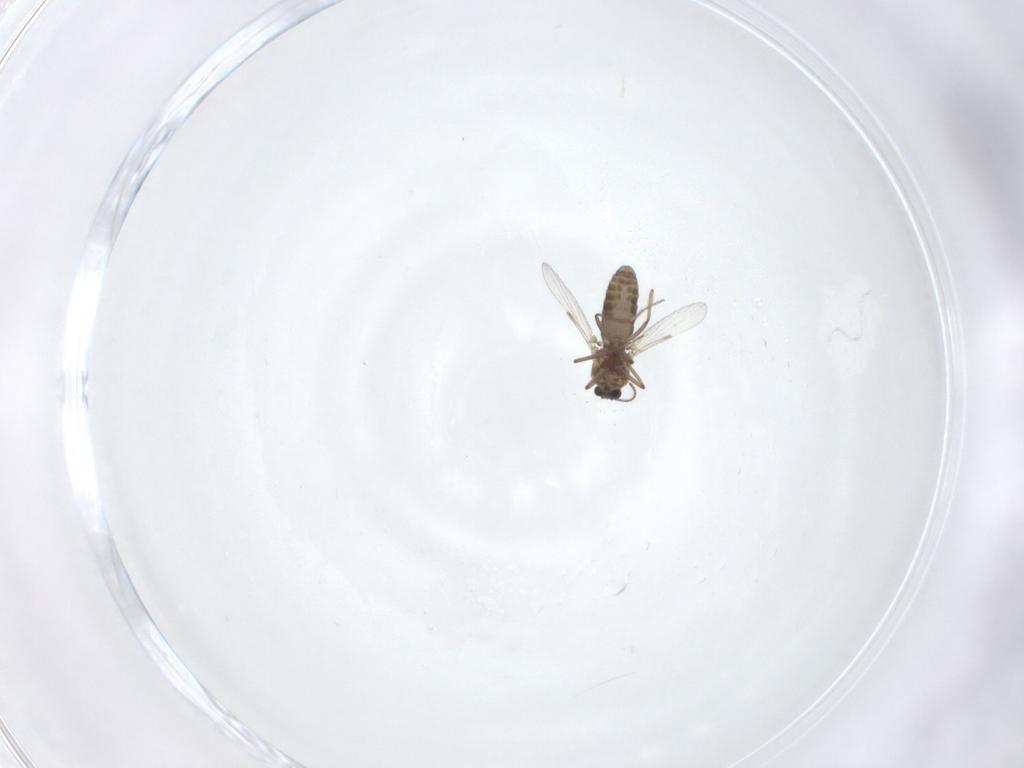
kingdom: Animalia
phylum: Arthropoda
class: Insecta
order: Diptera
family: Ceratopogonidae
